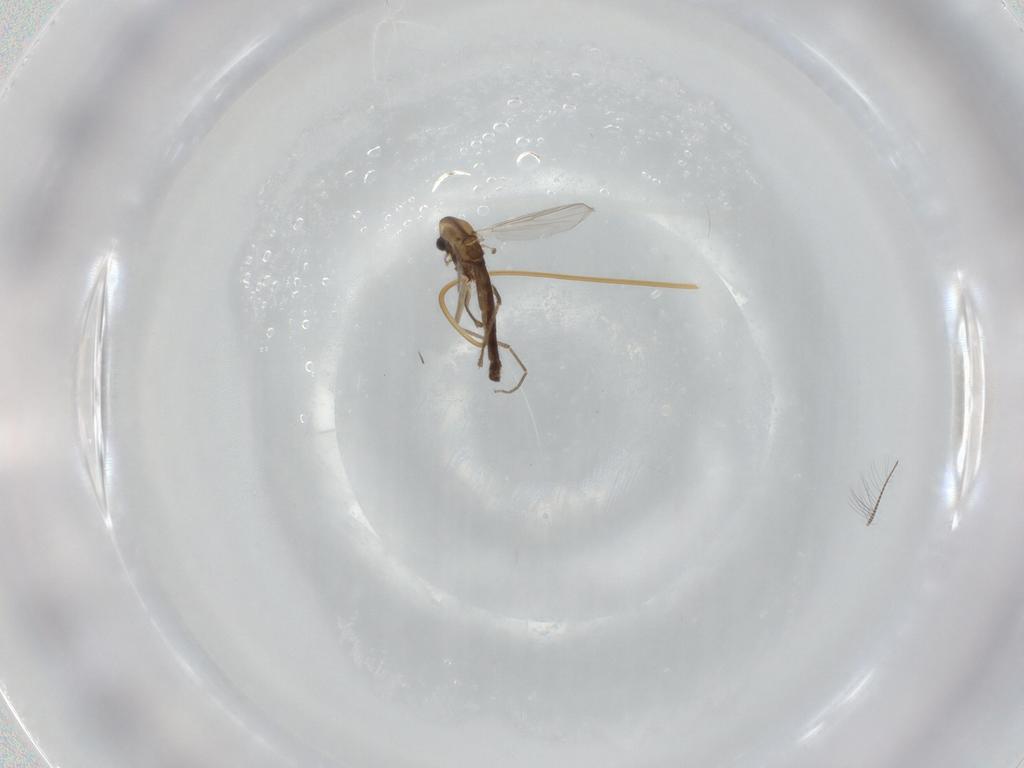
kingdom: Animalia
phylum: Arthropoda
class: Insecta
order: Diptera
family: Chironomidae
